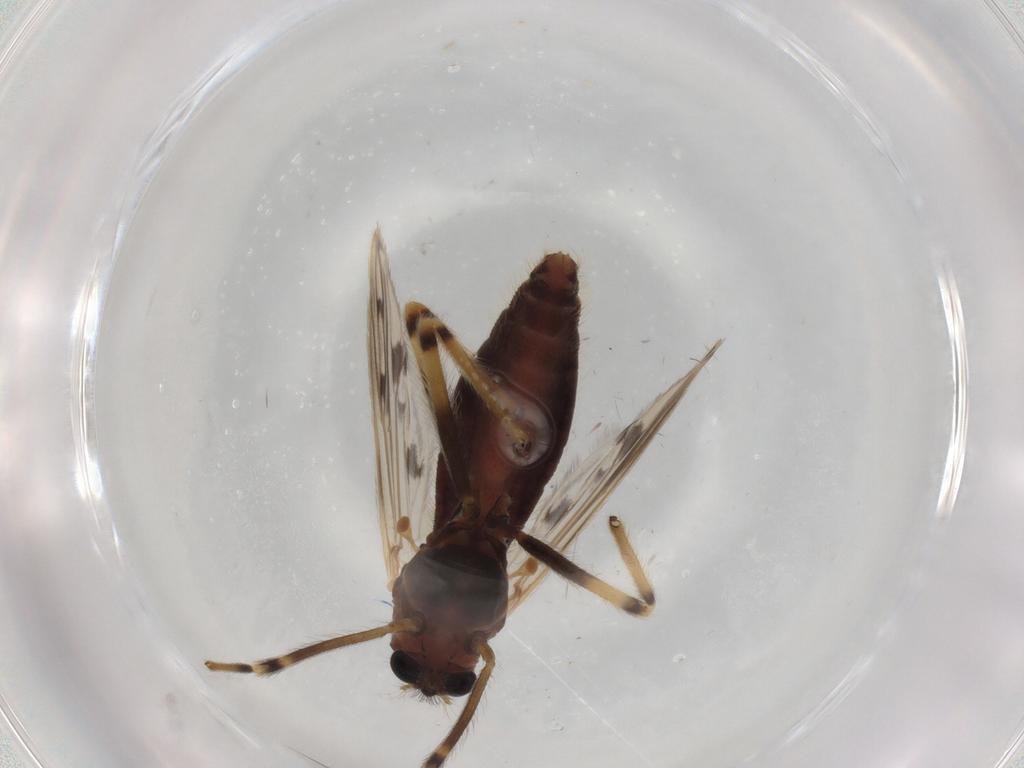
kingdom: Animalia
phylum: Arthropoda
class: Insecta
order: Diptera
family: Chironomidae
